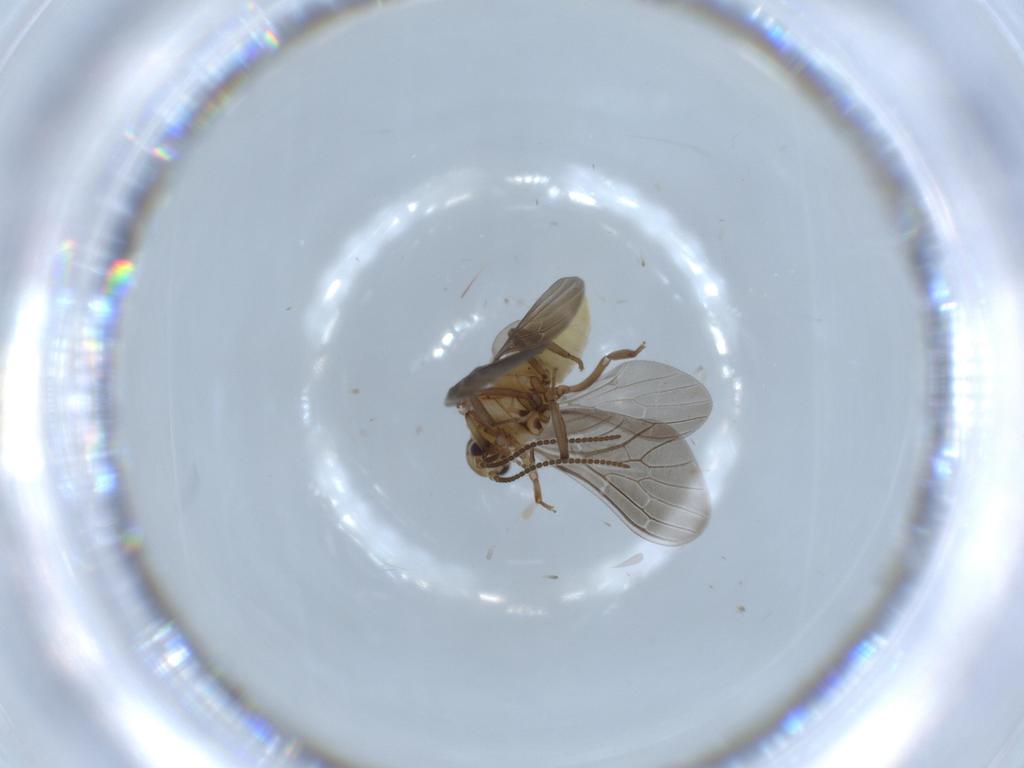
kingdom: Animalia
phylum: Arthropoda
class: Insecta
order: Neuroptera
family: Coniopterygidae
